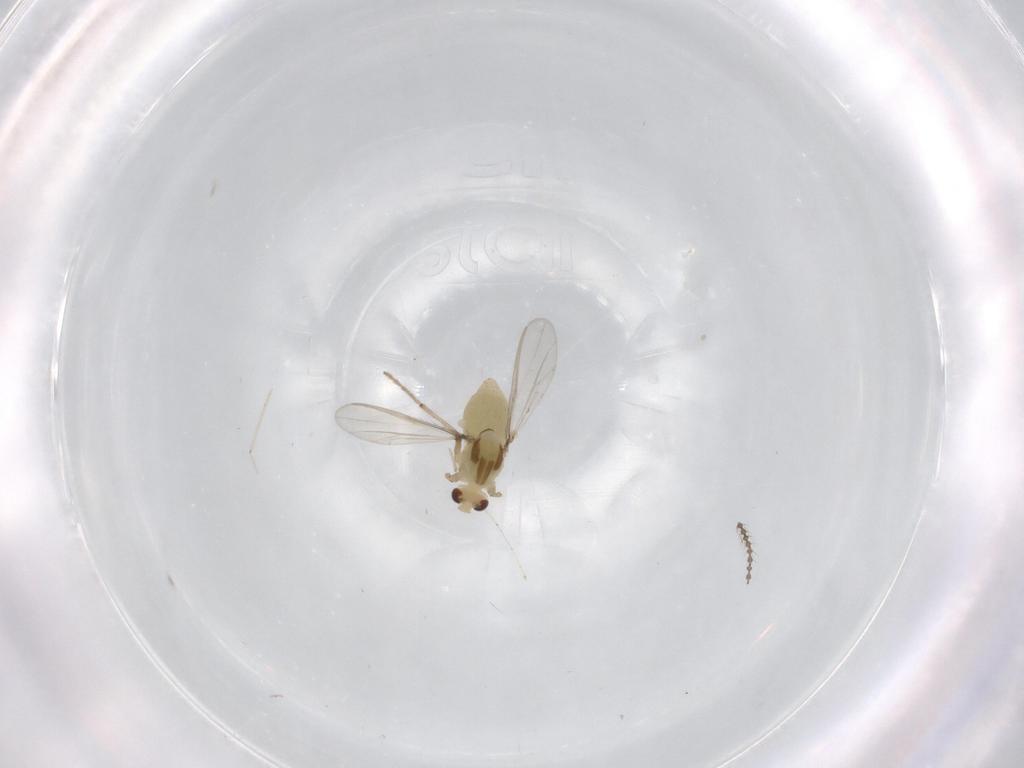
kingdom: Animalia
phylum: Arthropoda
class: Insecta
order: Diptera
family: Chironomidae
